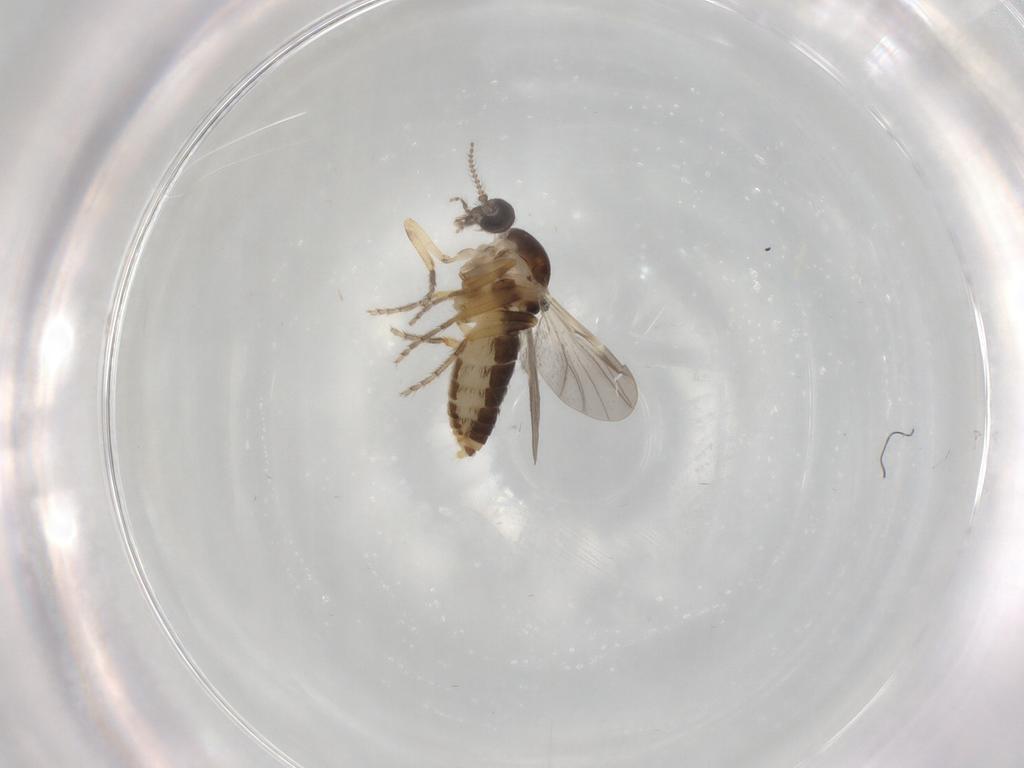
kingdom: Animalia
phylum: Arthropoda
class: Insecta
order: Diptera
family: Ceratopogonidae
